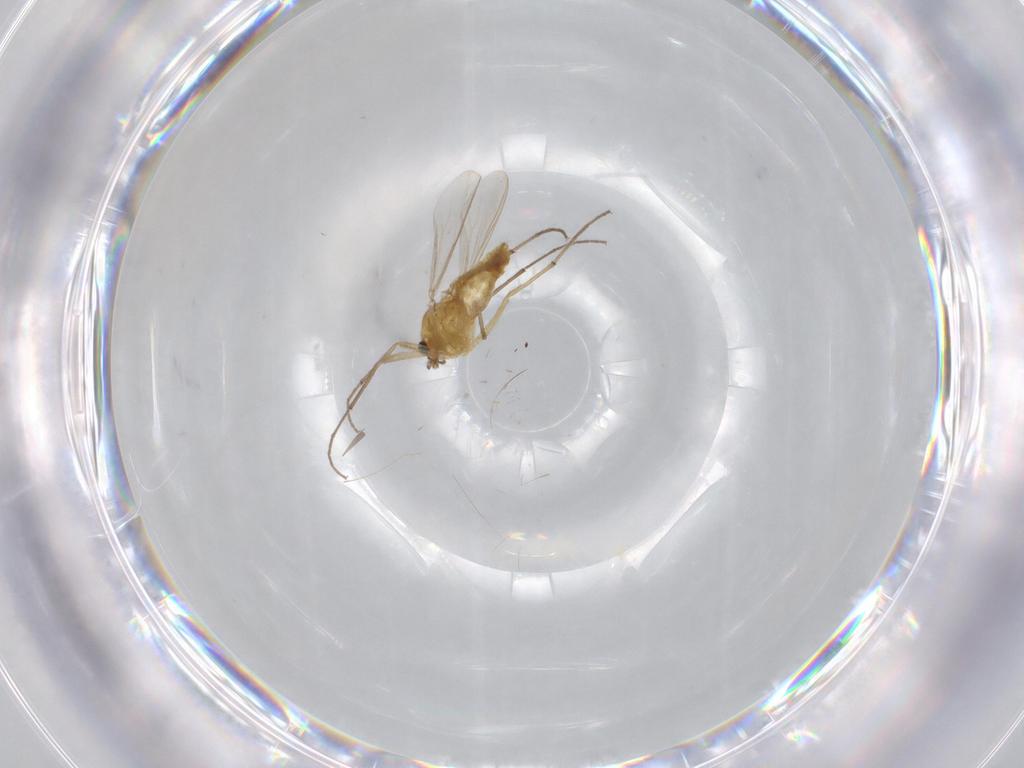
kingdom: Animalia
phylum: Arthropoda
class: Insecta
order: Diptera
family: Chironomidae
